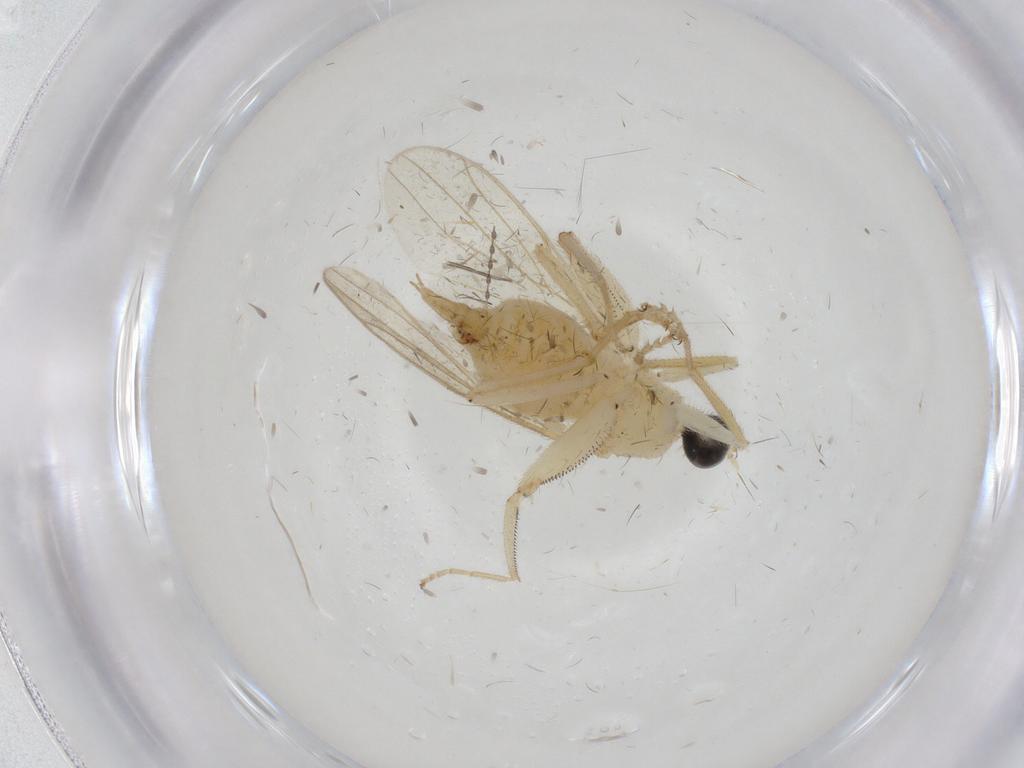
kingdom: Animalia
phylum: Arthropoda
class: Insecta
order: Diptera
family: Hybotidae
